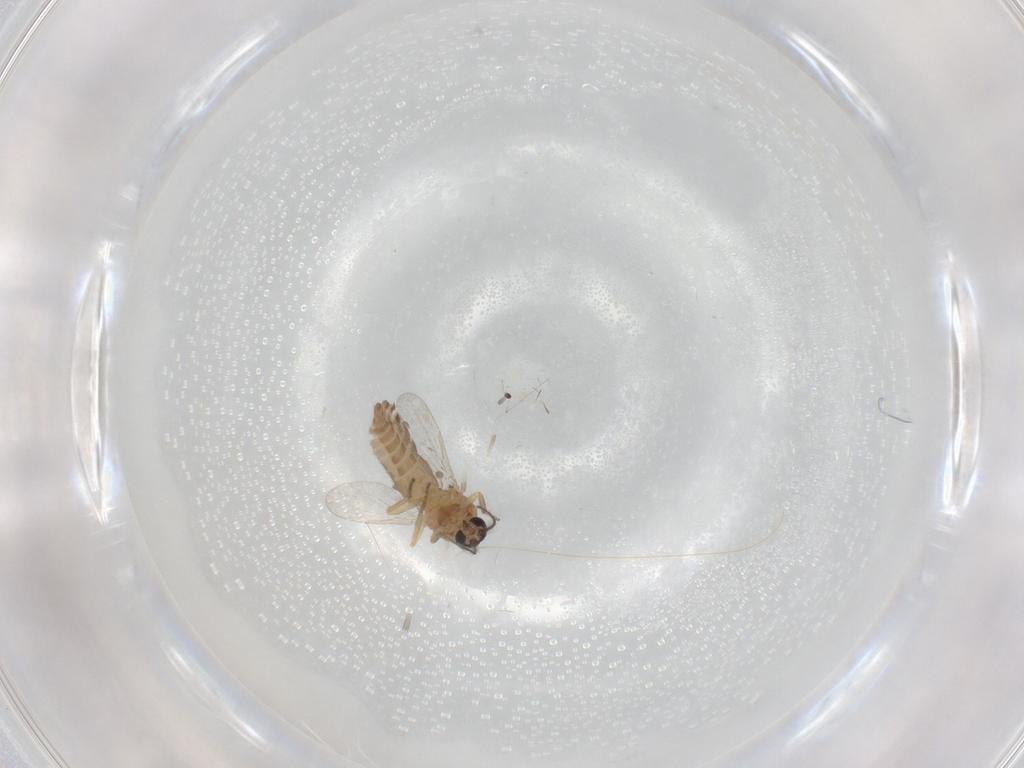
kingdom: Animalia
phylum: Arthropoda
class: Insecta
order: Diptera
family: Ceratopogonidae
